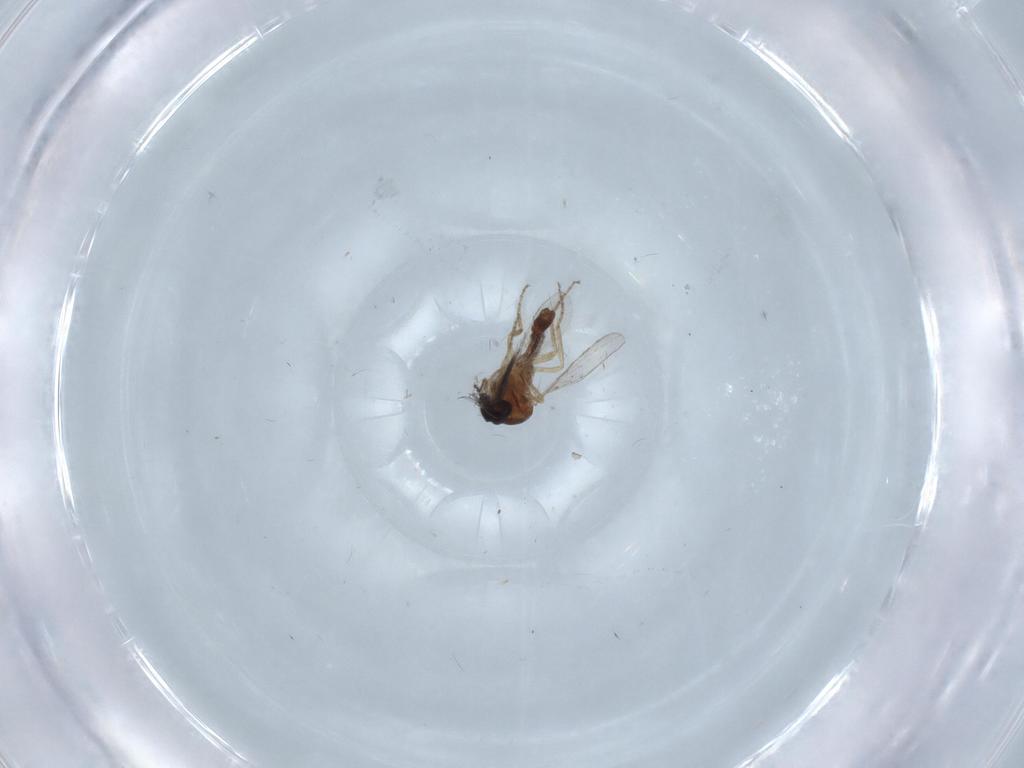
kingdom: Animalia
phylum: Arthropoda
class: Insecta
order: Diptera
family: Ceratopogonidae
